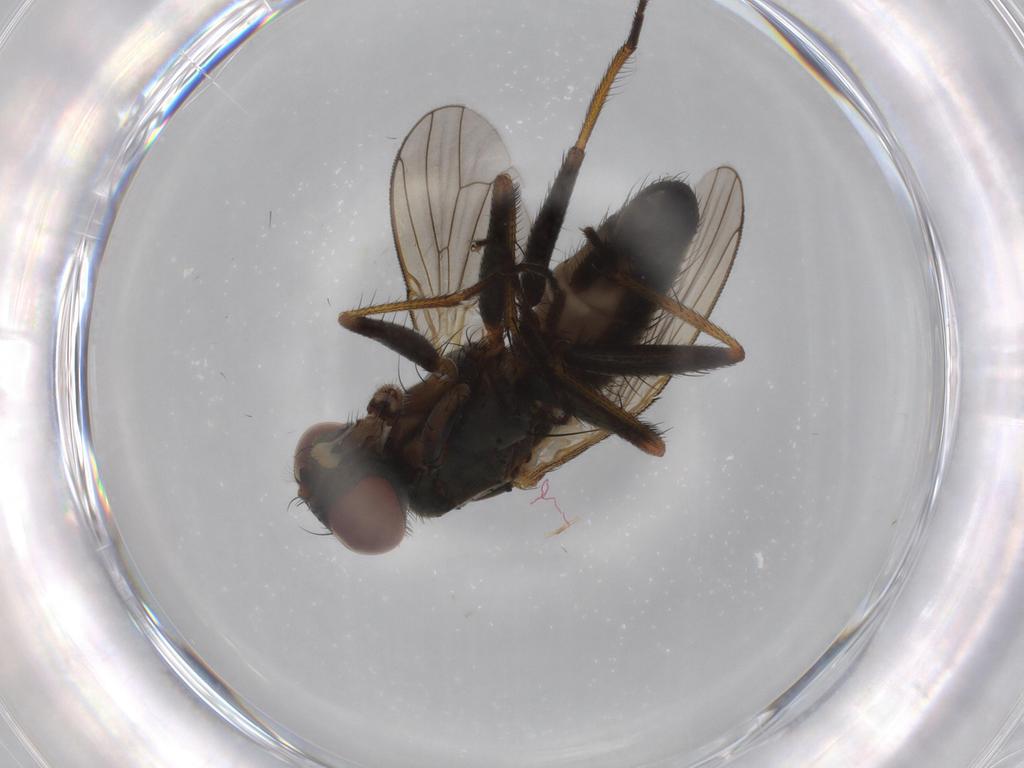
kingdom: Animalia
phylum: Arthropoda
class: Insecta
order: Diptera
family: Muscidae
